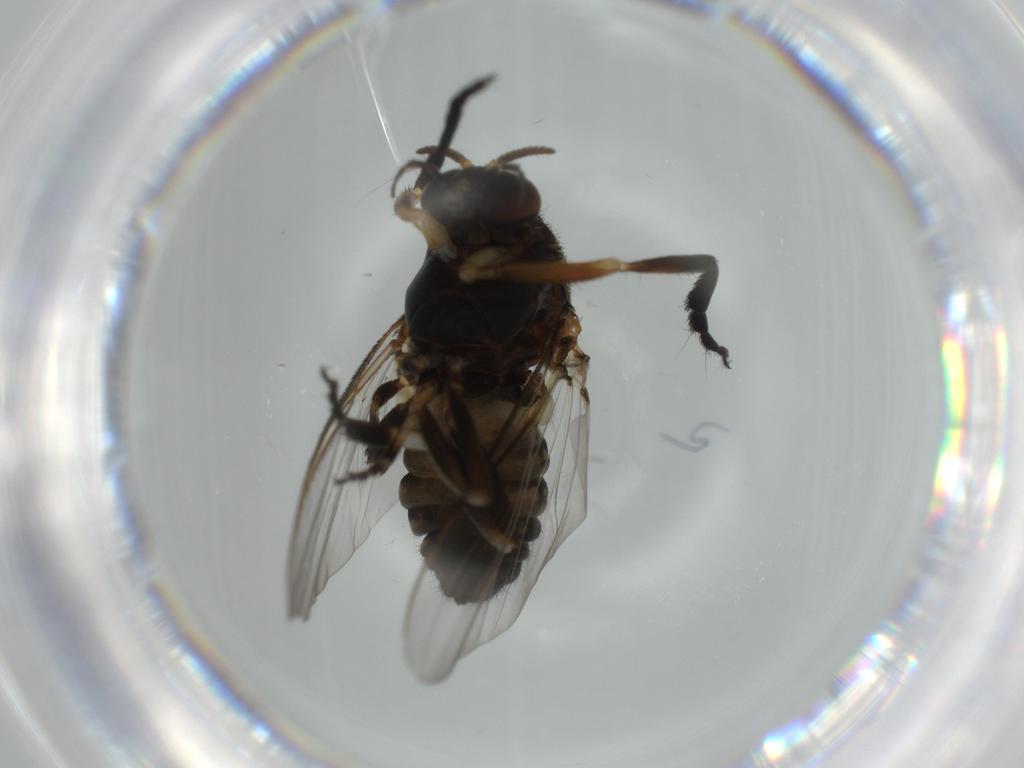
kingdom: Animalia
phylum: Arthropoda
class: Insecta
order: Diptera
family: Cecidomyiidae
